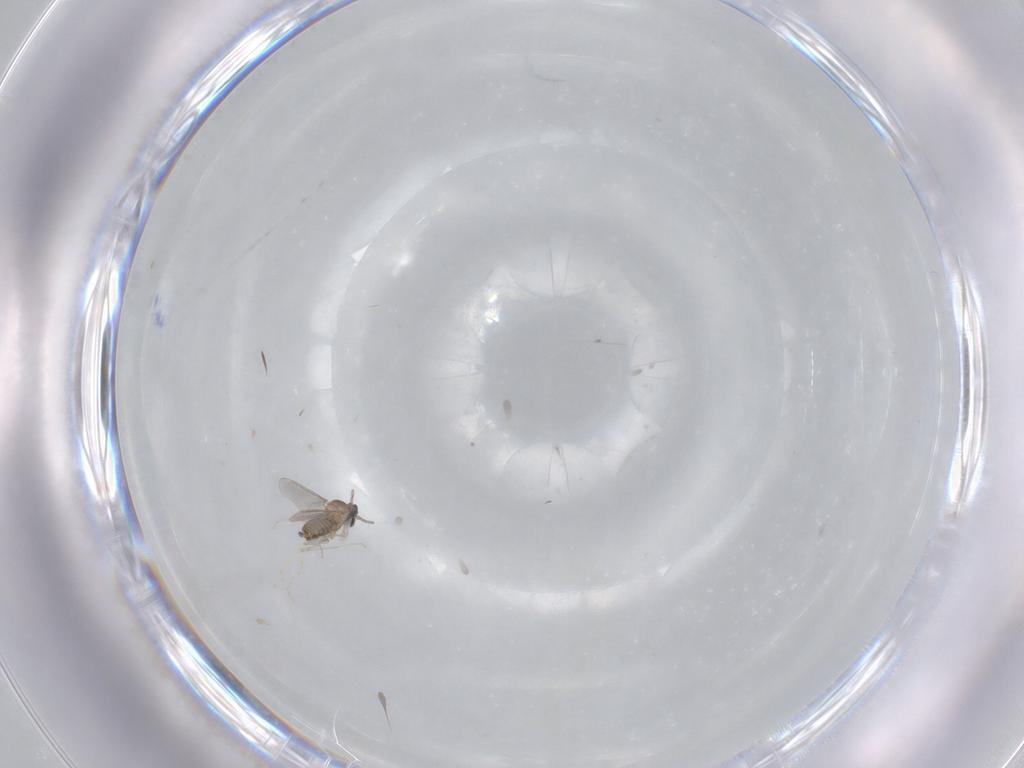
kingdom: Animalia
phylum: Arthropoda
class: Insecta
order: Diptera
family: Cecidomyiidae
